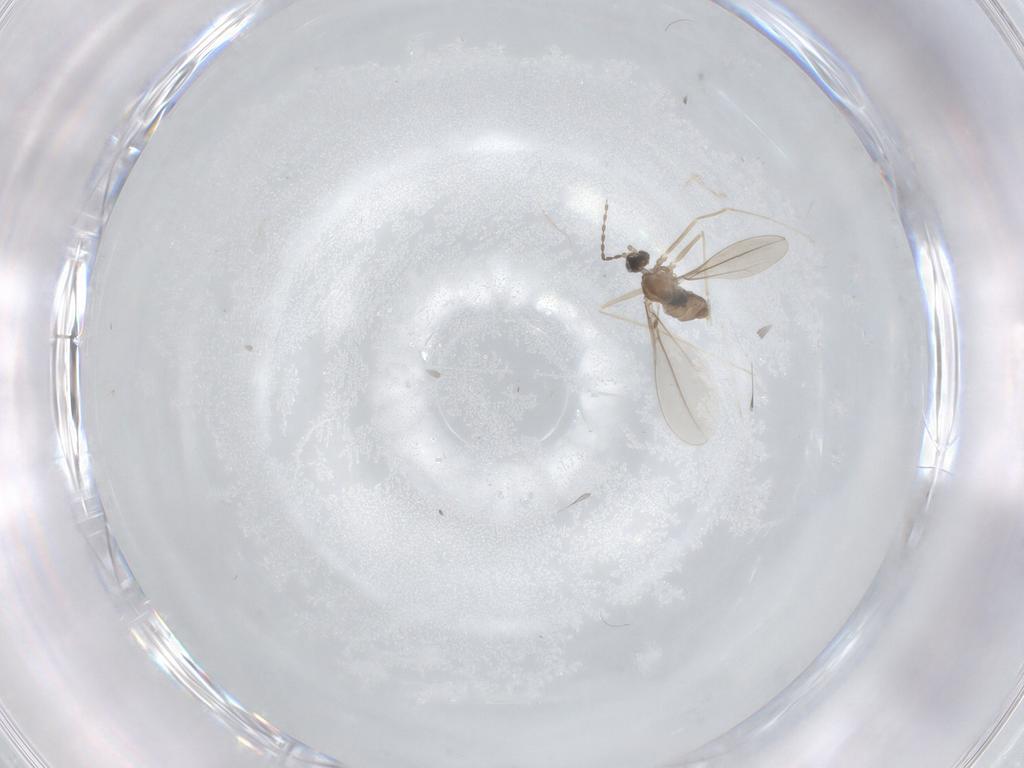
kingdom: Animalia
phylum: Arthropoda
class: Insecta
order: Diptera
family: Cecidomyiidae
